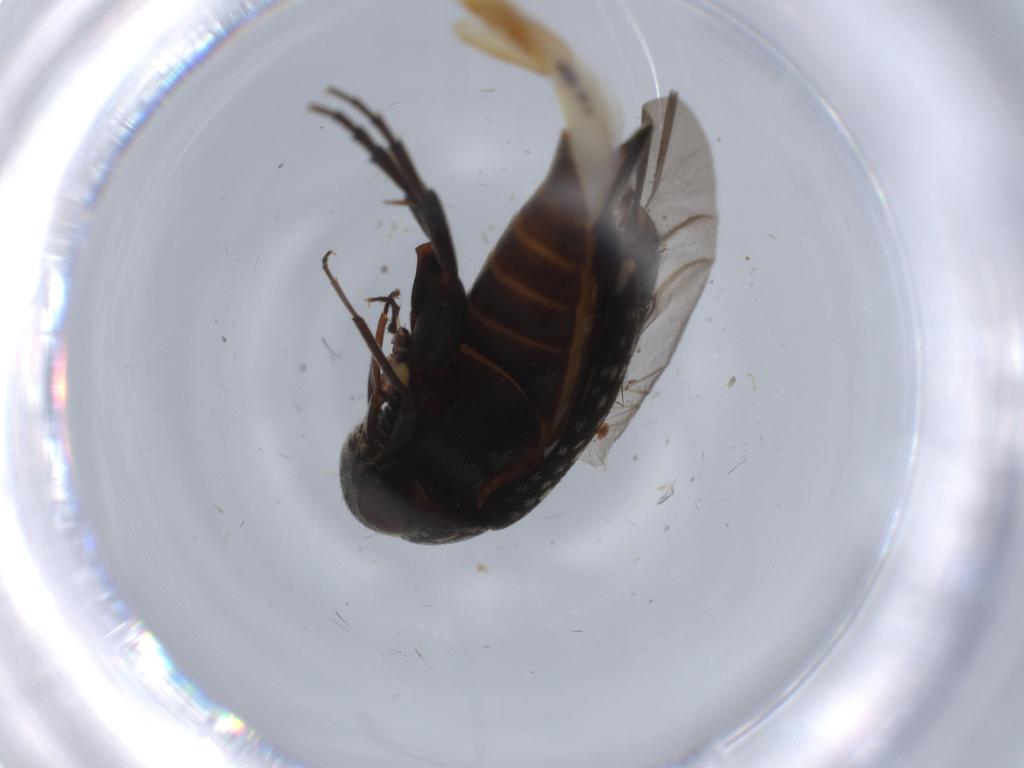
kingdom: Animalia
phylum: Arthropoda
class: Insecta
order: Coleoptera
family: Mordellidae
